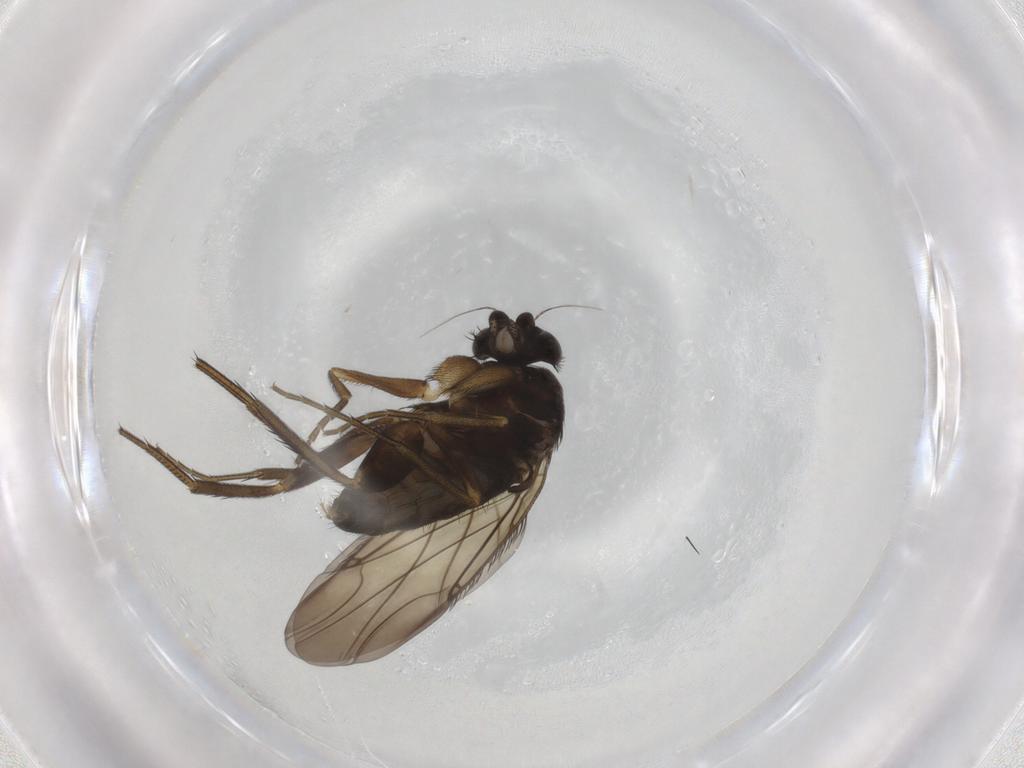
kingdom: Animalia
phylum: Arthropoda
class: Insecta
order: Diptera
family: Phoridae
